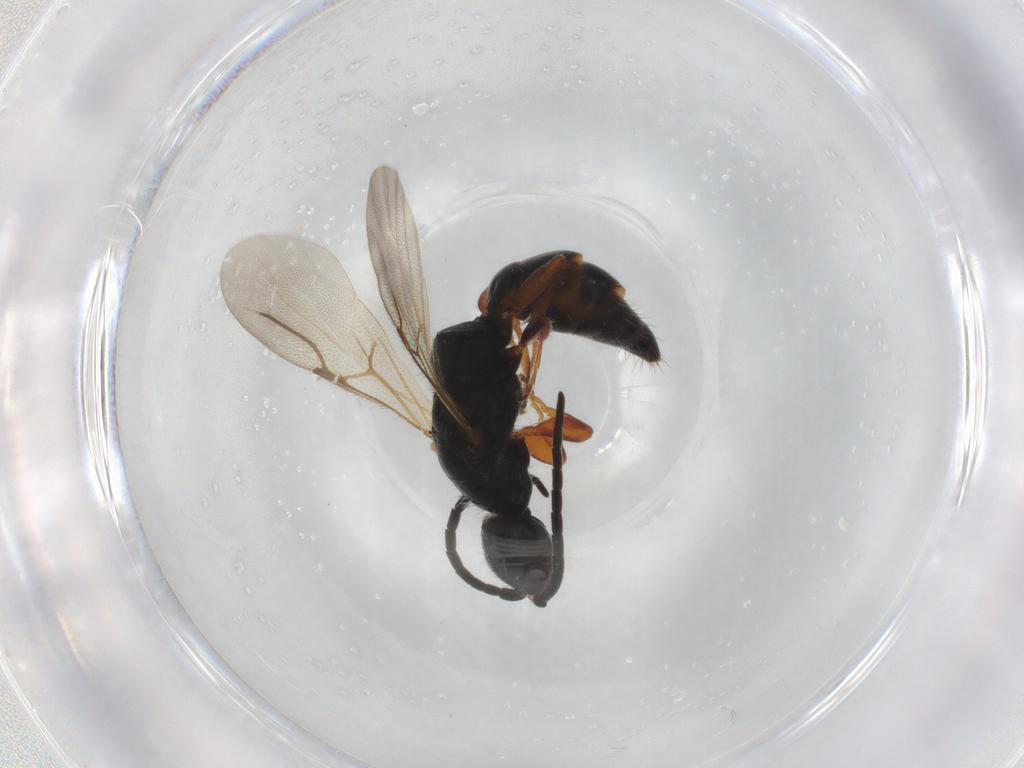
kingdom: Animalia
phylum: Arthropoda
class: Insecta
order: Hymenoptera
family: Bethylidae
